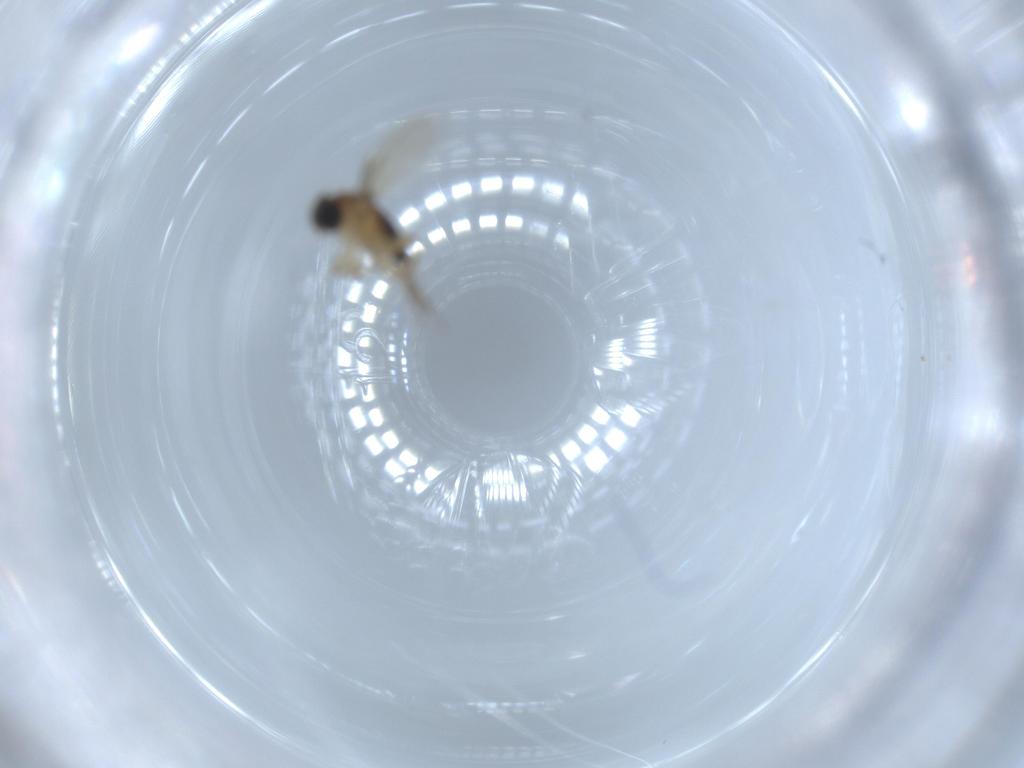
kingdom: Animalia
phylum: Arthropoda
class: Insecta
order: Diptera
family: Phoridae
